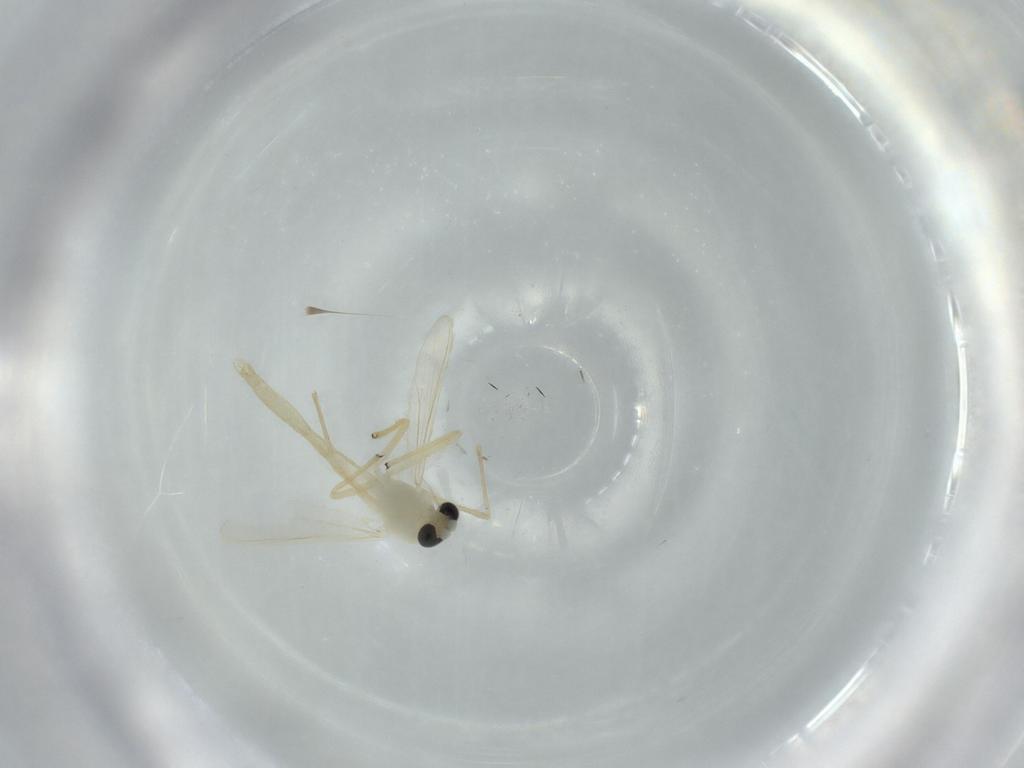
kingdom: Animalia
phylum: Arthropoda
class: Insecta
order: Diptera
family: Chironomidae
